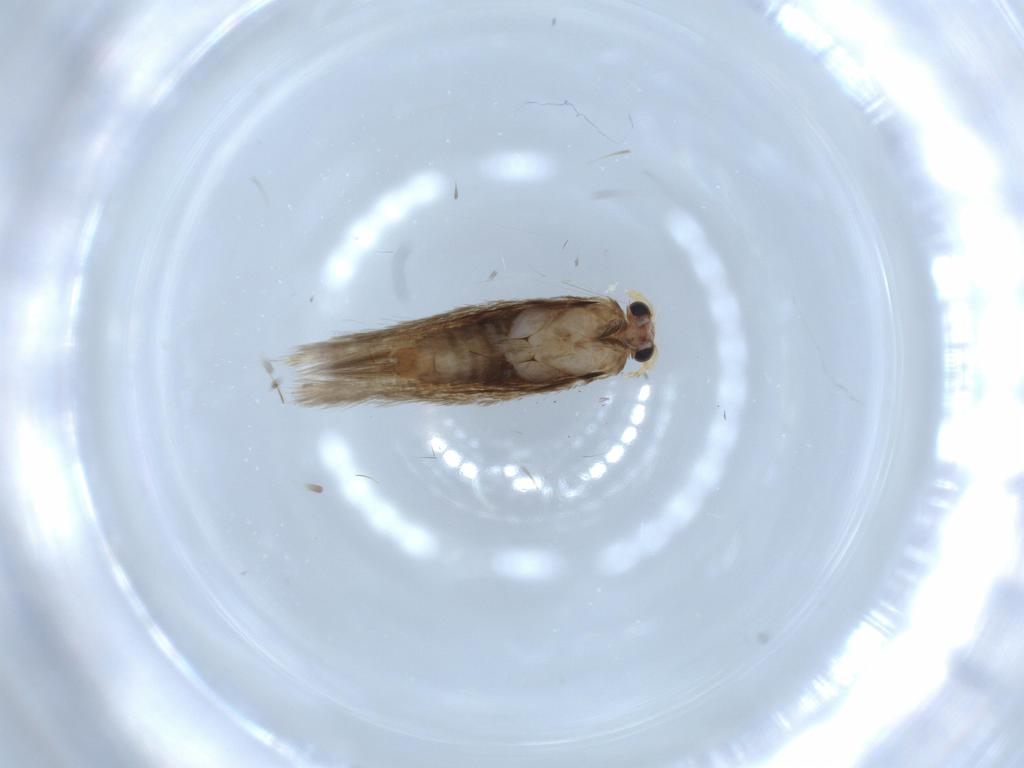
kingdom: Animalia
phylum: Arthropoda
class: Insecta
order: Lepidoptera
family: Nepticulidae
